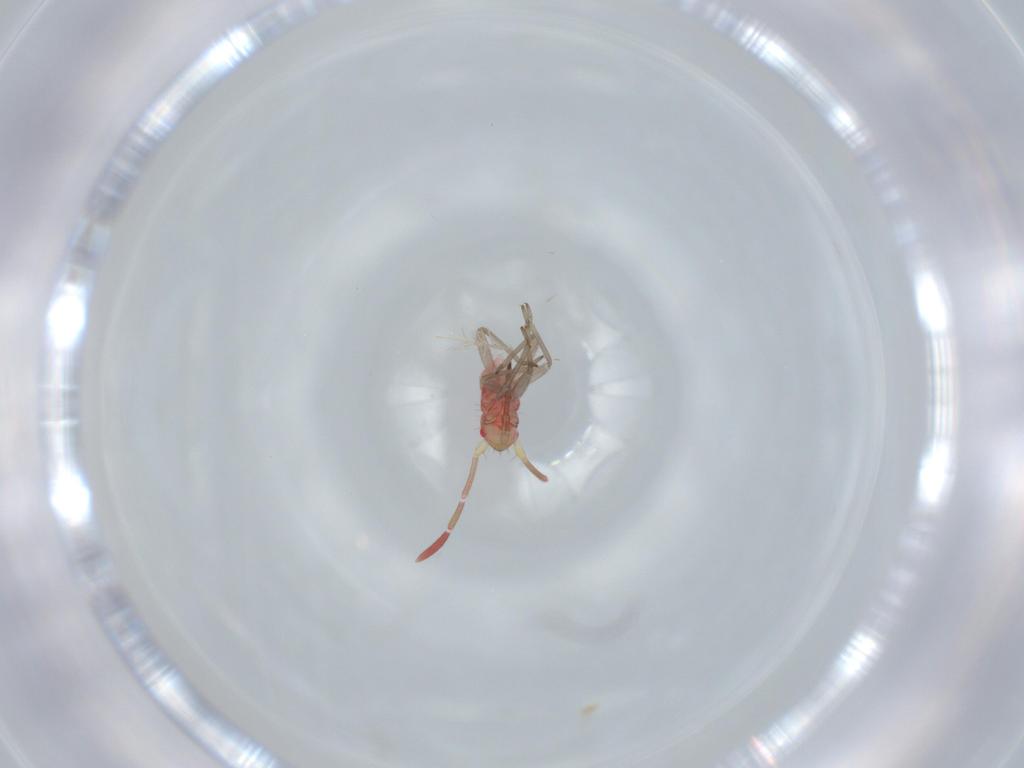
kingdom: Animalia
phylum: Arthropoda
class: Insecta
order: Hemiptera
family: Miridae
